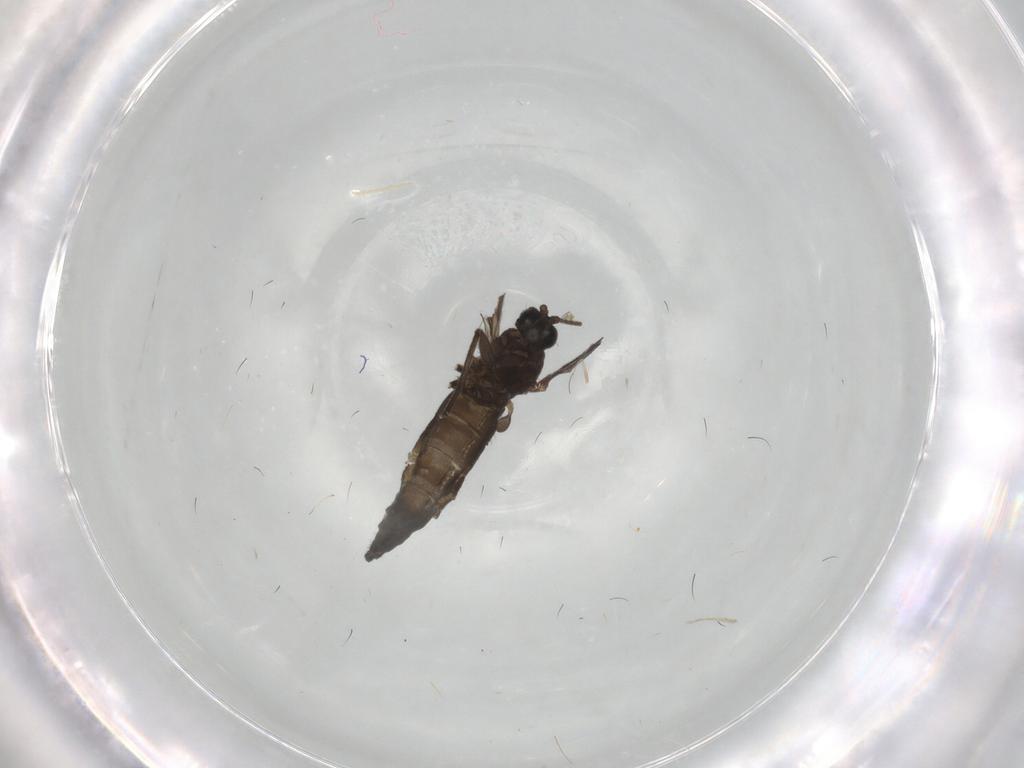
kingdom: Animalia
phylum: Arthropoda
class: Insecta
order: Diptera
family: Sciaridae
